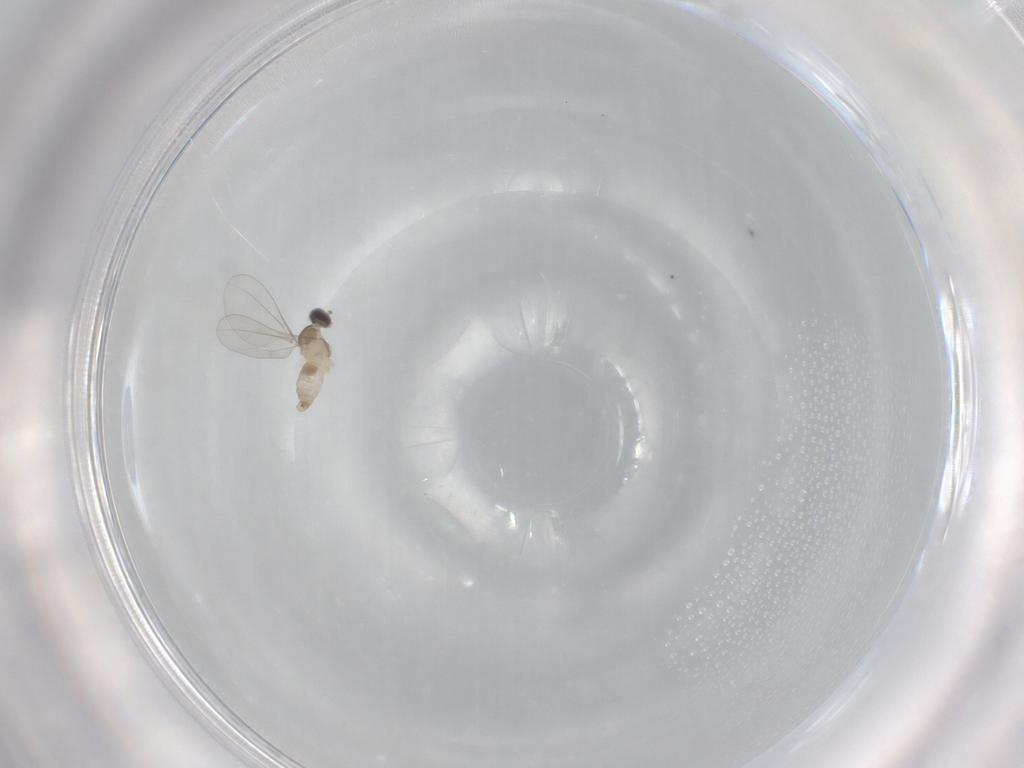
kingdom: Animalia
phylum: Arthropoda
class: Insecta
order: Diptera
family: Cecidomyiidae
